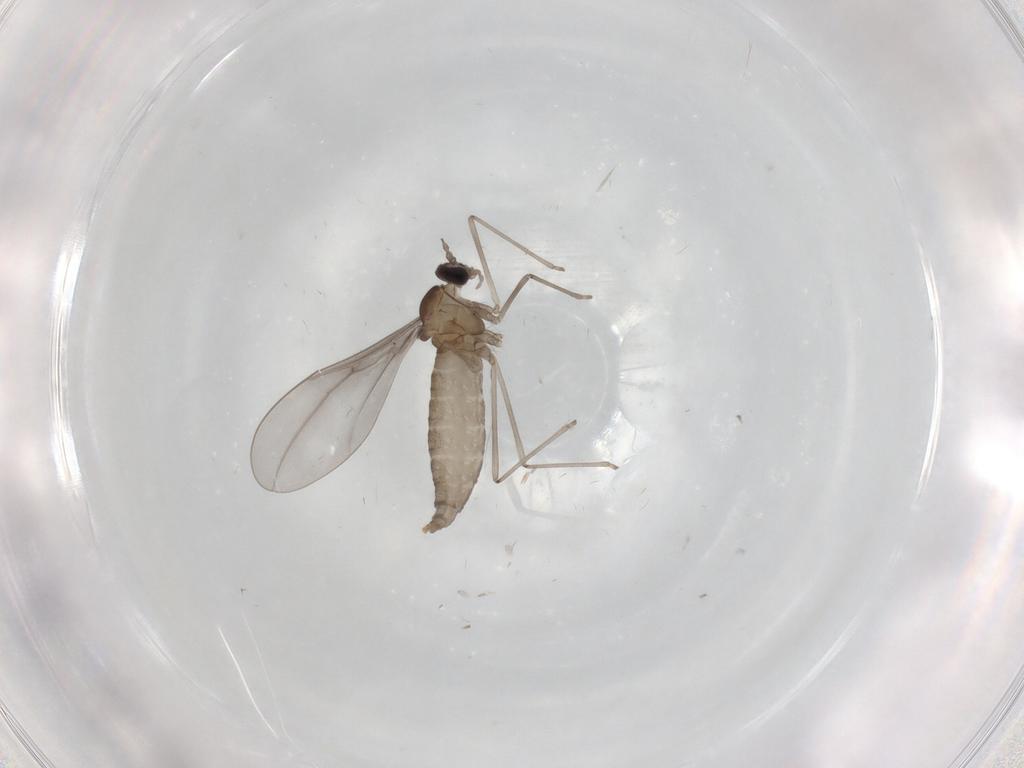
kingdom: Animalia
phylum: Arthropoda
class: Insecta
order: Diptera
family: Cecidomyiidae
